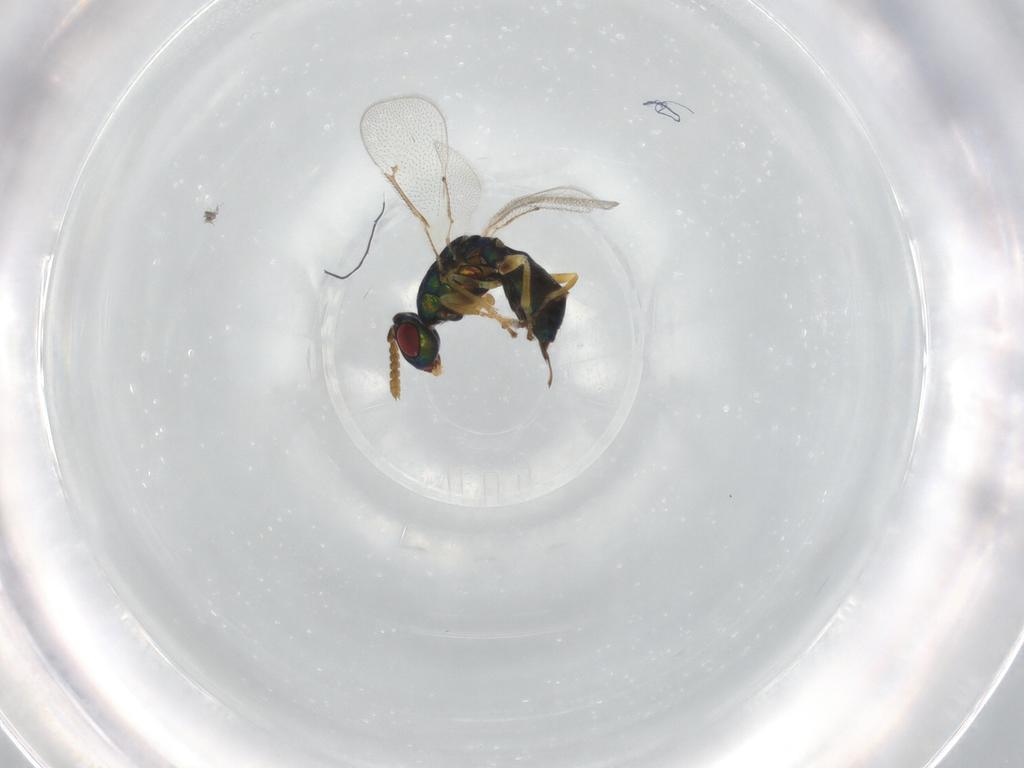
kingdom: Animalia
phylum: Arthropoda
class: Insecta
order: Hymenoptera
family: Eulophidae
